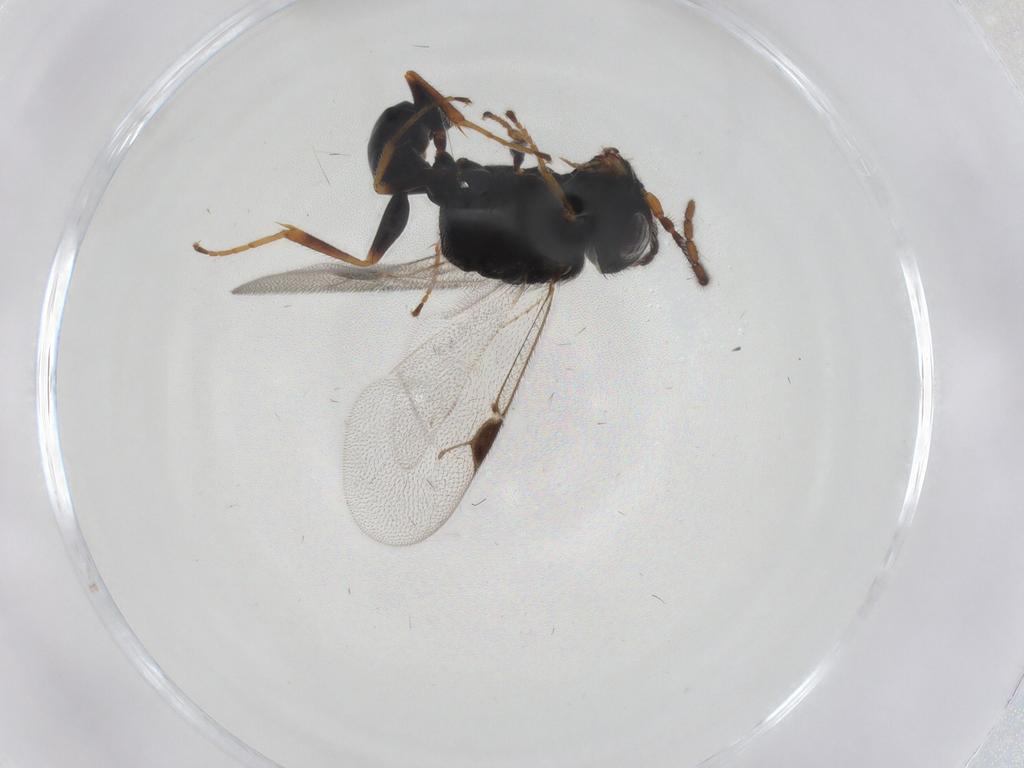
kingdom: Animalia
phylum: Arthropoda
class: Insecta
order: Hymenoptera
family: Dryinidae
